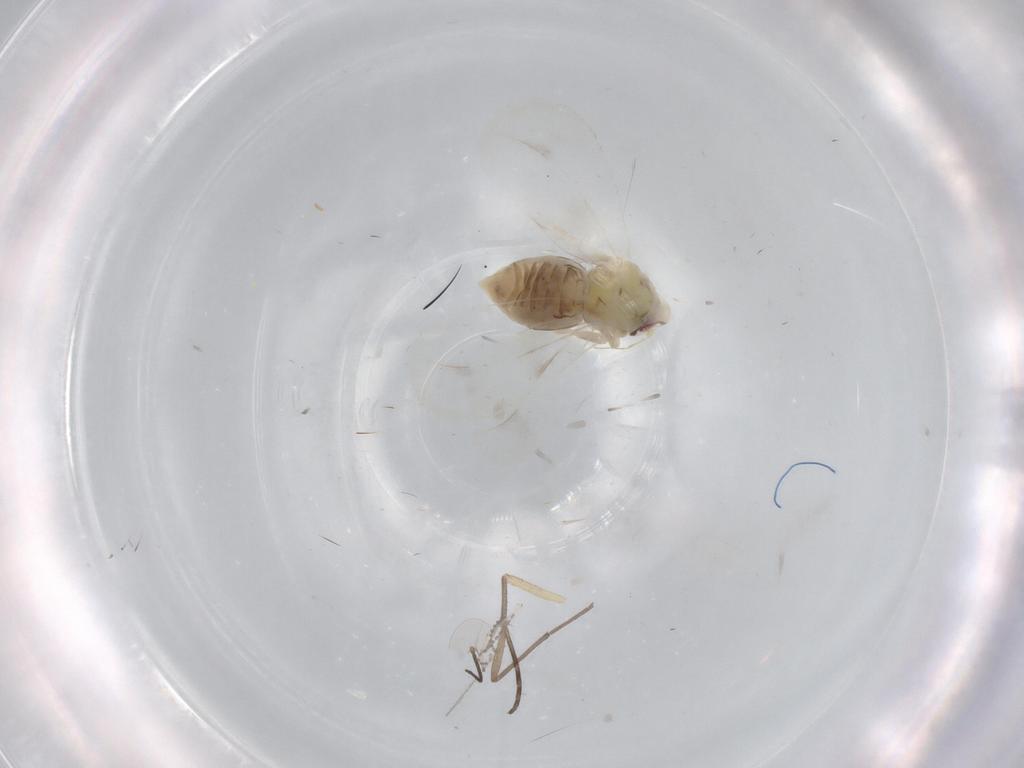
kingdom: Animalia
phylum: Arthropoda
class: Insecta
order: Hemiptera
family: Aleyrodidae
